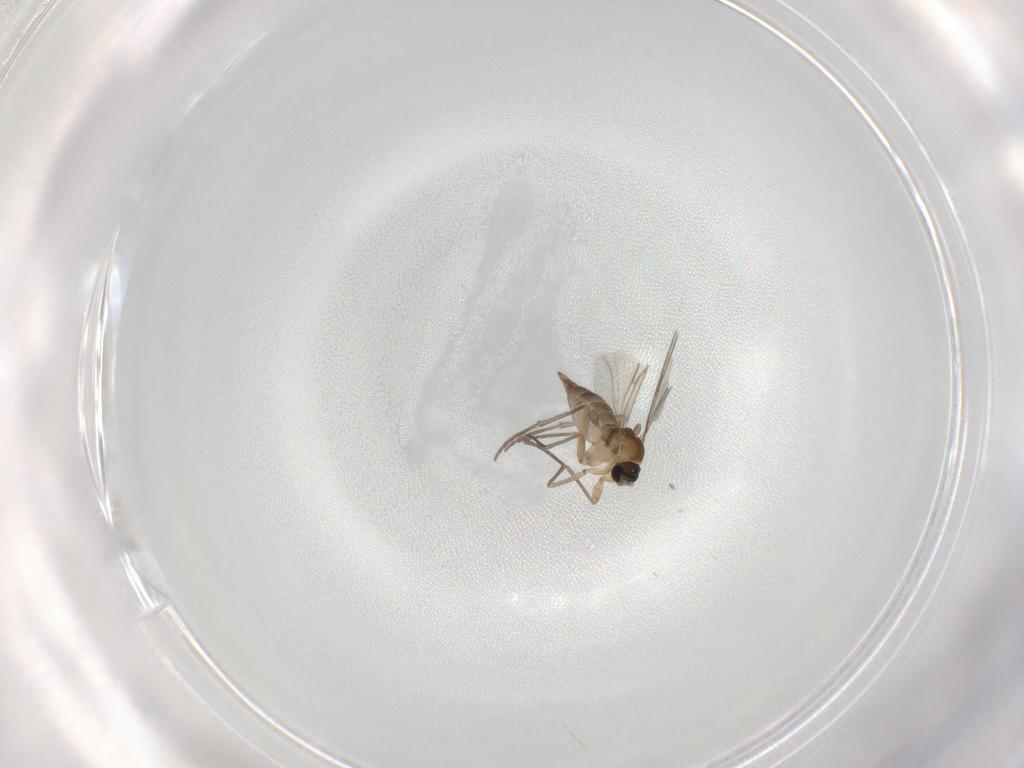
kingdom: Animalia
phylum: Arthropoda
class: Insecta
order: Diptera
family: Sciaridae
